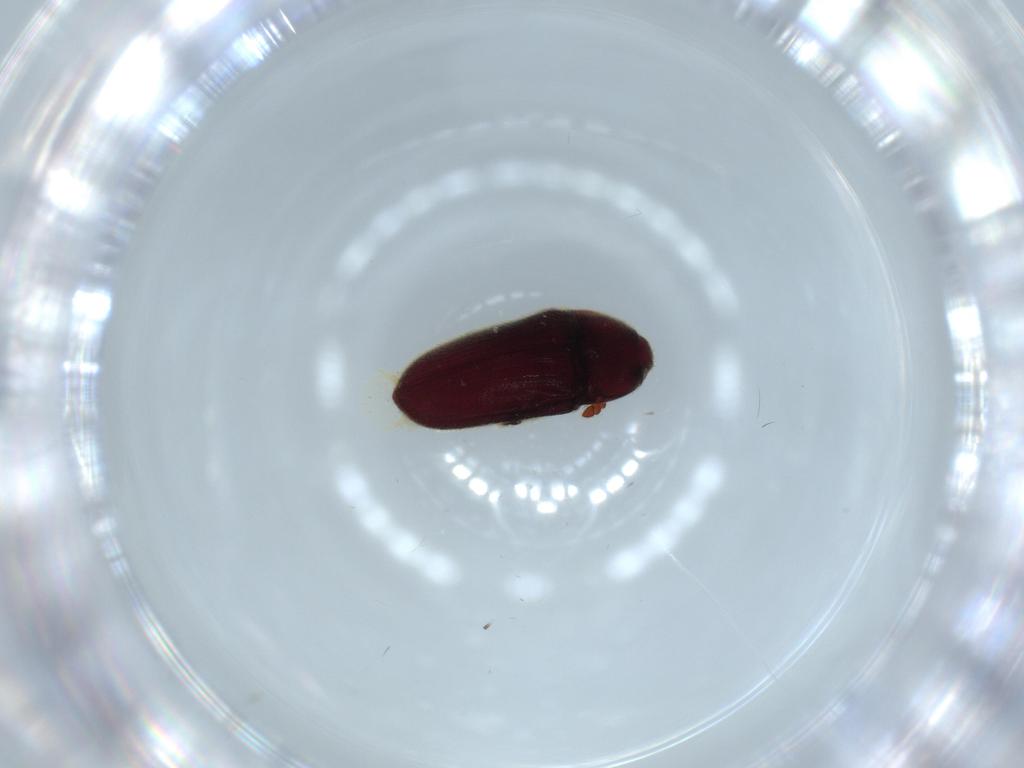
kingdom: Animalia
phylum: Arthropoda
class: Insecta
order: Coleoptera
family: Throscidae
